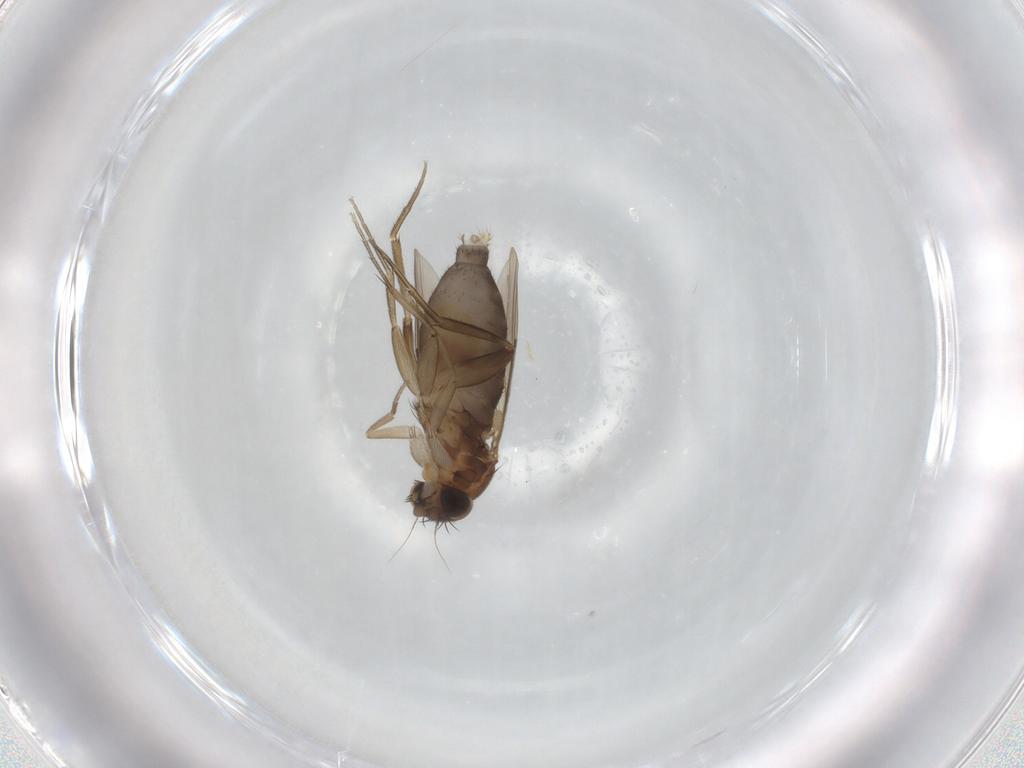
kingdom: Animalia
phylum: Arthropoda
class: Insecta
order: Diptera
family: Phoridae
